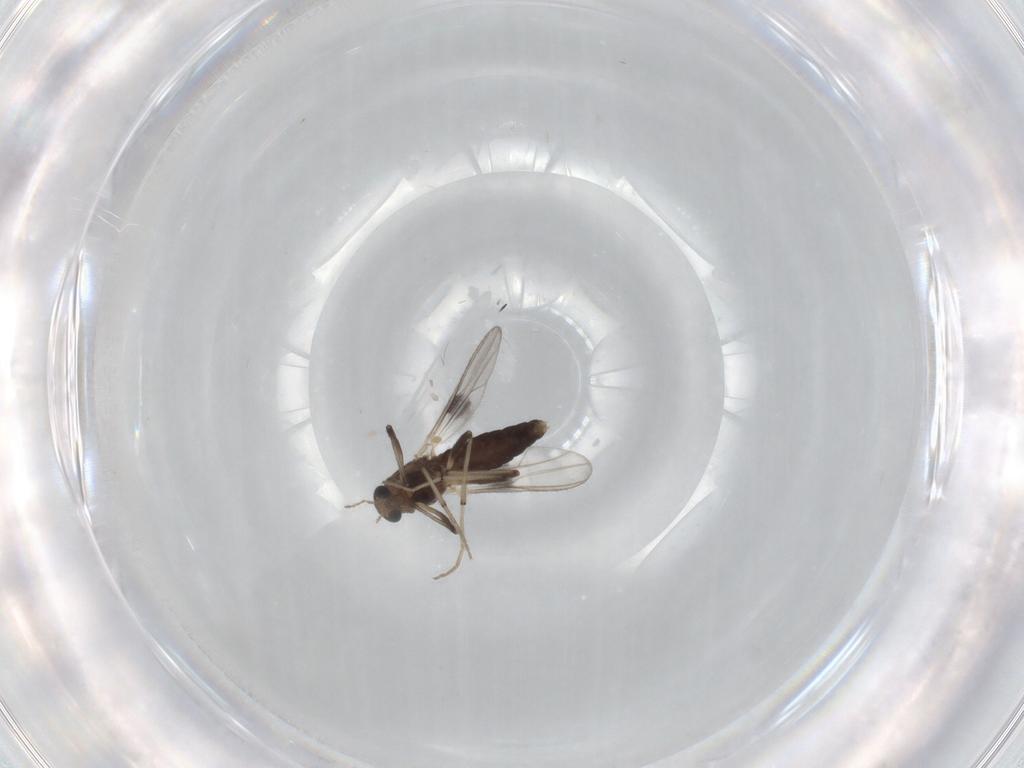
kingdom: Animalia
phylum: Arthropoda
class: Insecta
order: Diptera
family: Chironomidae
